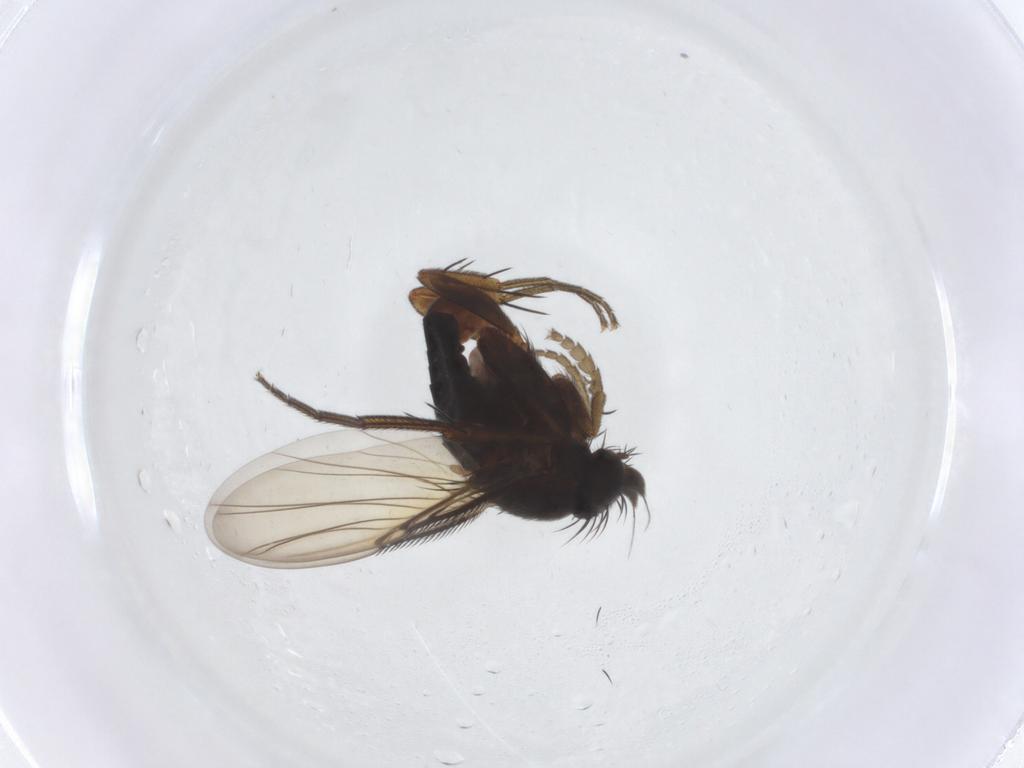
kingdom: Animalia
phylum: Arthropoda
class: Insecta
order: Diptera
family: Phoridae
